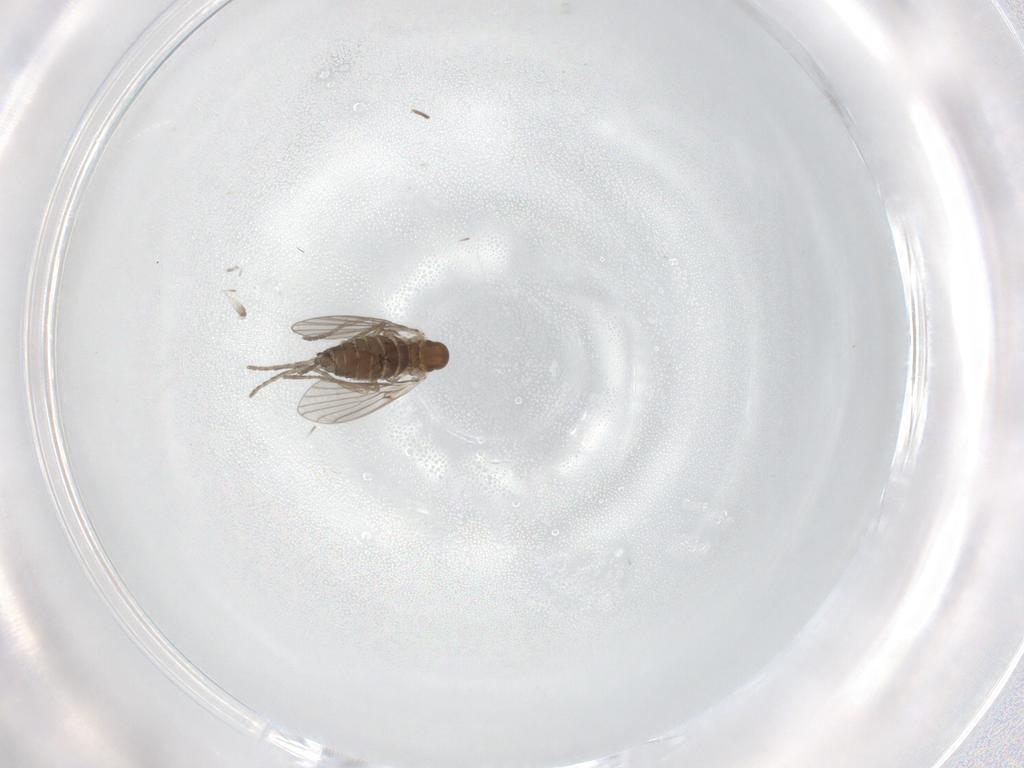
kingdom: Animalia
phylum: Arthropoda
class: Insecta
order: Diptera
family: Phoridae
